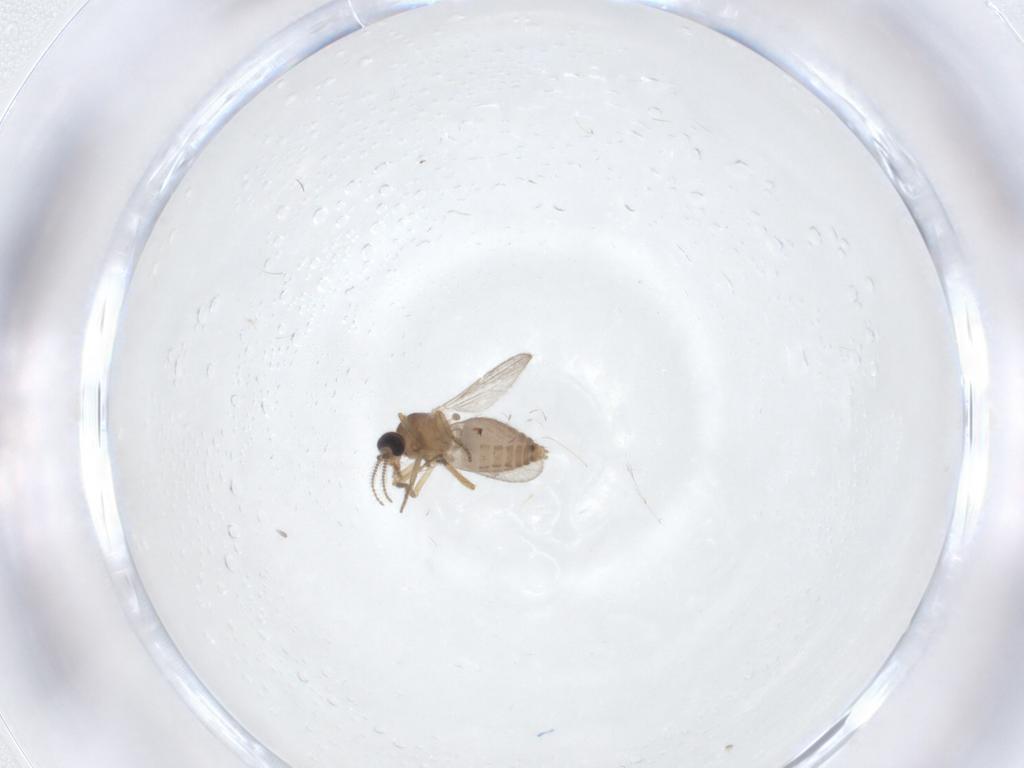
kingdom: Animalia
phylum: Arthropoda
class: Insecta
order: Diptera
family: Ceratopogonidae
